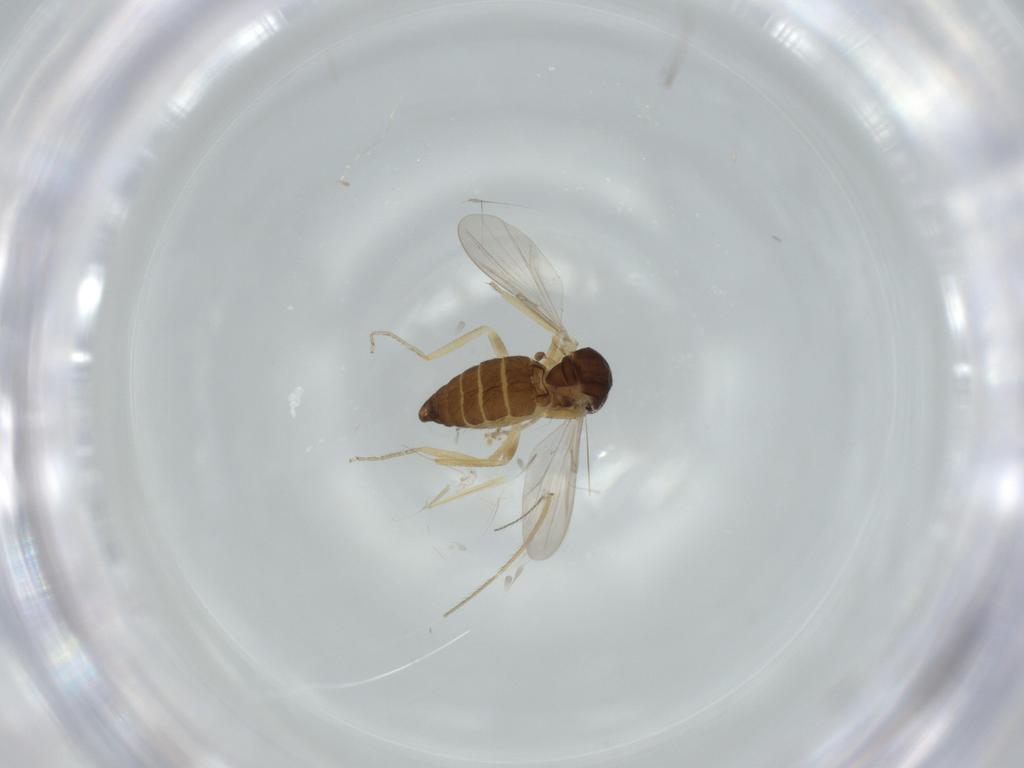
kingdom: Animalia
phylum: Arthropoda
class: Insecta
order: Diptera
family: Ceratopogonidae
